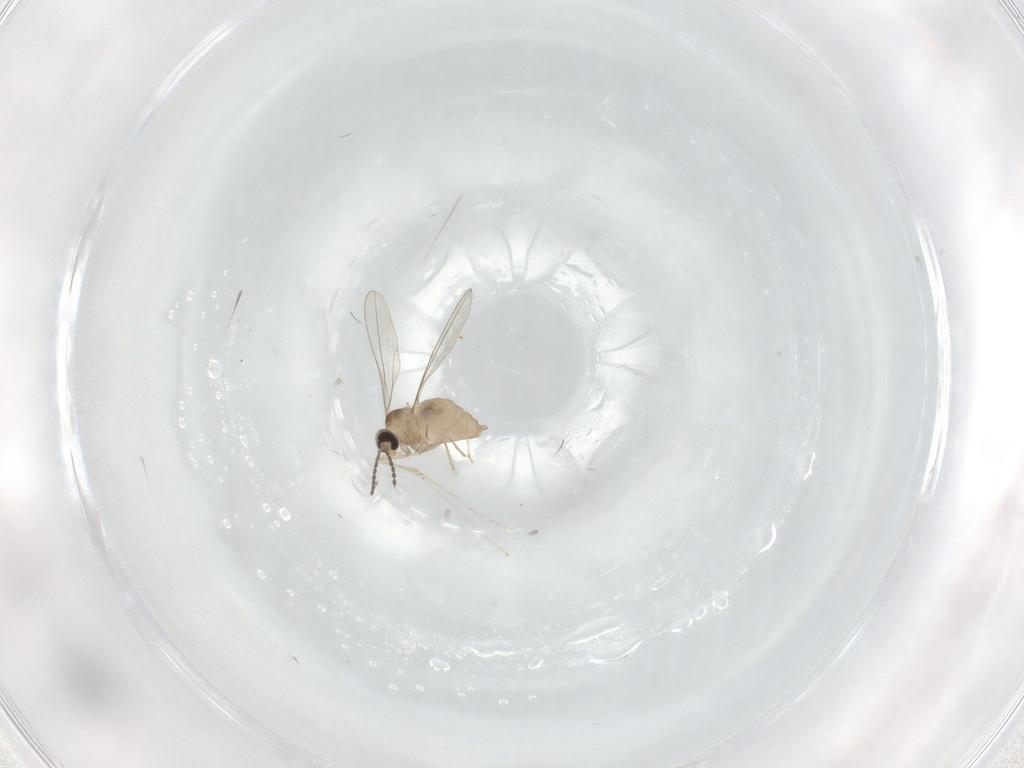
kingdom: Animalia
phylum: Arthropoda
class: Insecta
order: Diptera
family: Cecidomyiidae
